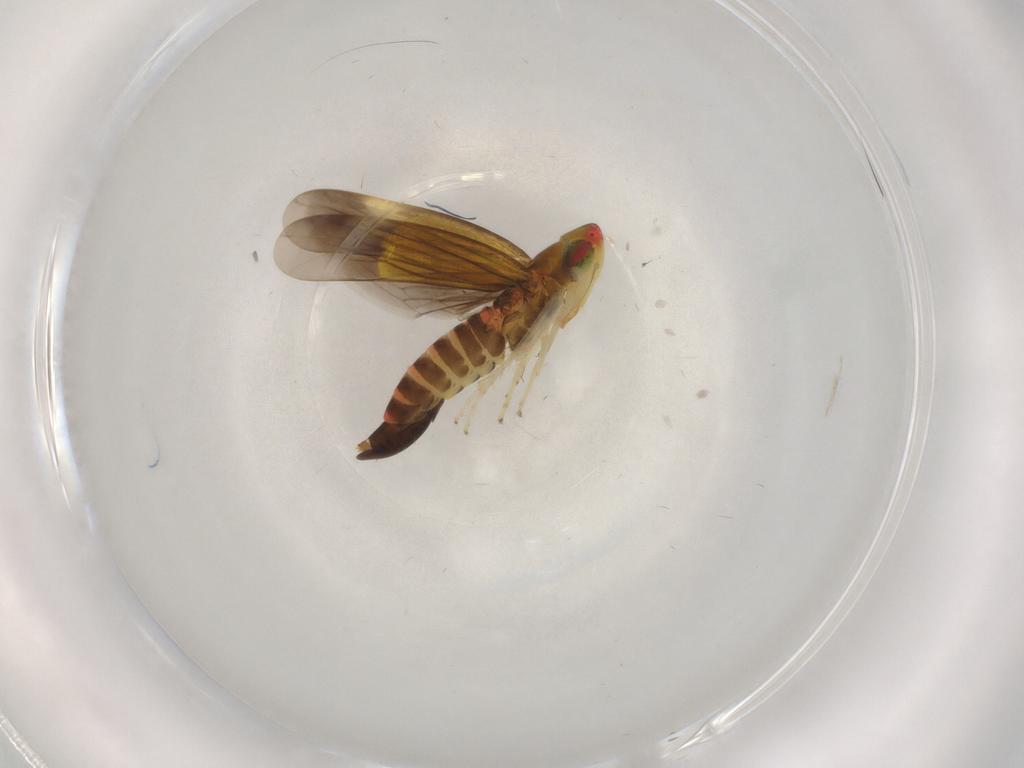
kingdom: Animalia
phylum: Arthropoda
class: Insecta
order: Hemiptera
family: Cicadellidae
